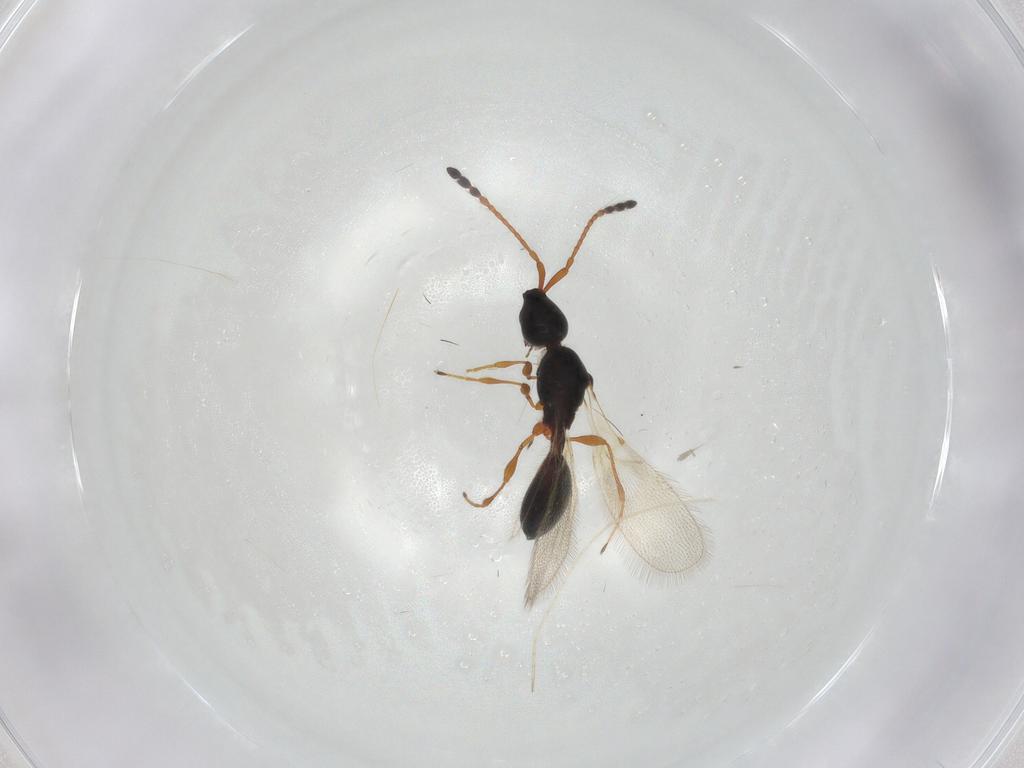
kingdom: Animalia
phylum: Arthropoda
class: Insecta
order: Hymenoptera
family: Diapriidae
